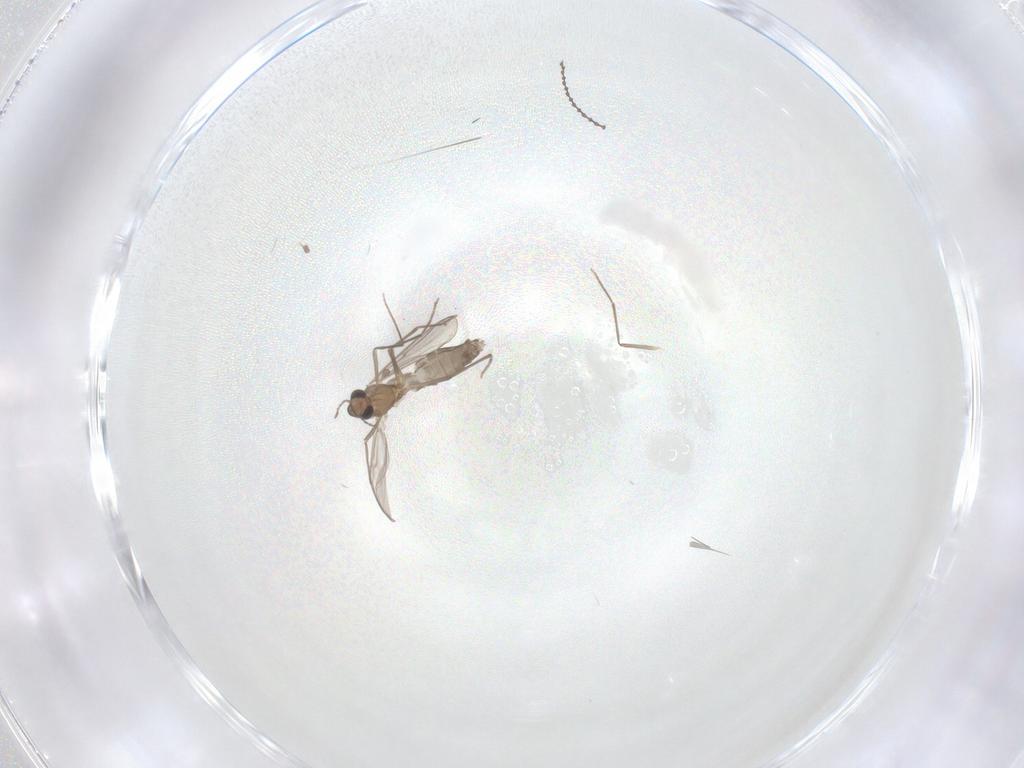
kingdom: Animalia
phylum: Arthropoda
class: Insecta
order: Diptera
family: Chironomidae
